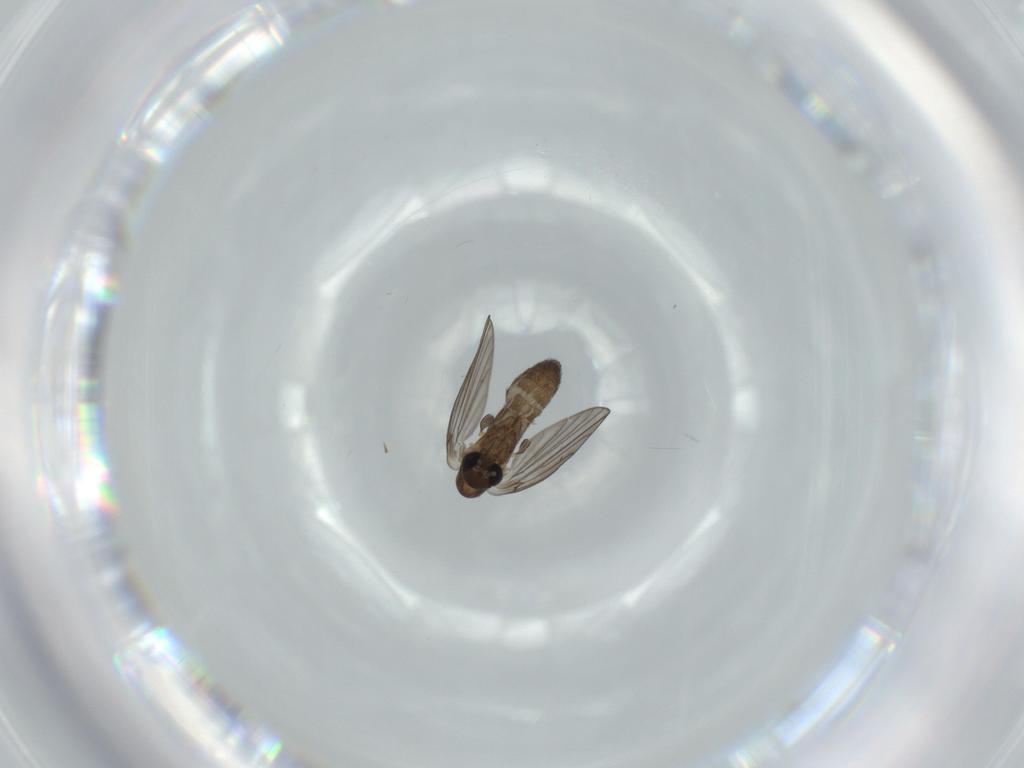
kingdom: Animalia
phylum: Arthropoda
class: Insecta
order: Diptera
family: Psychodidae
